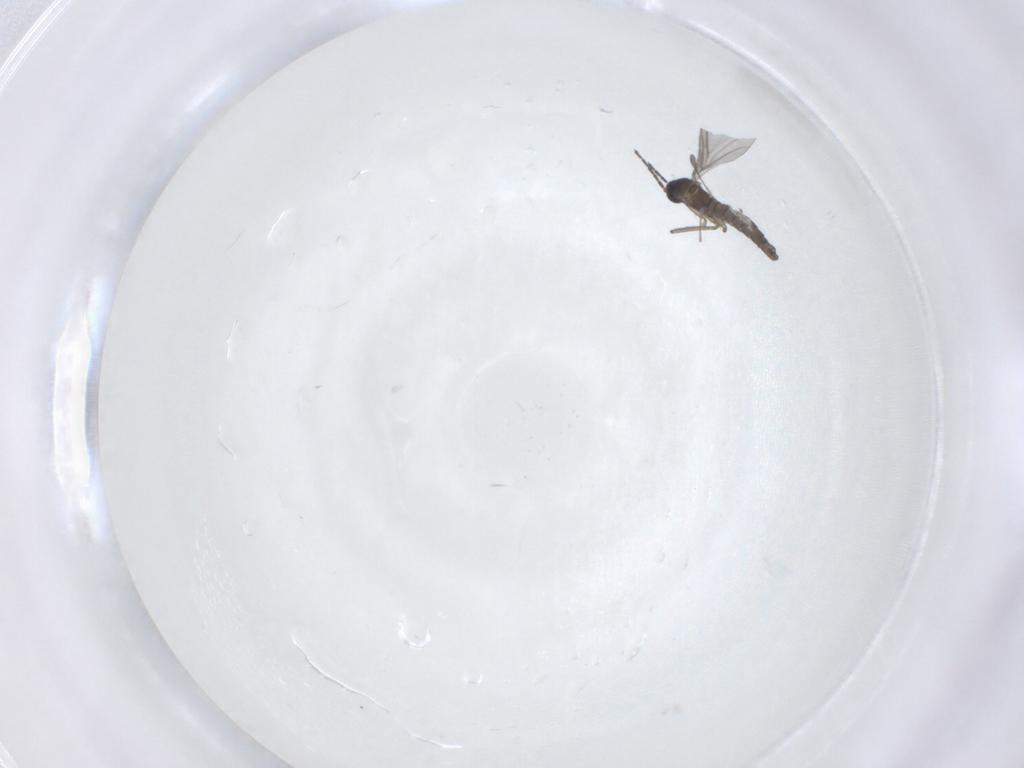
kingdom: Animalia
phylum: Arthropoda
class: Insecta
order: Diptera
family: Sciaridae
